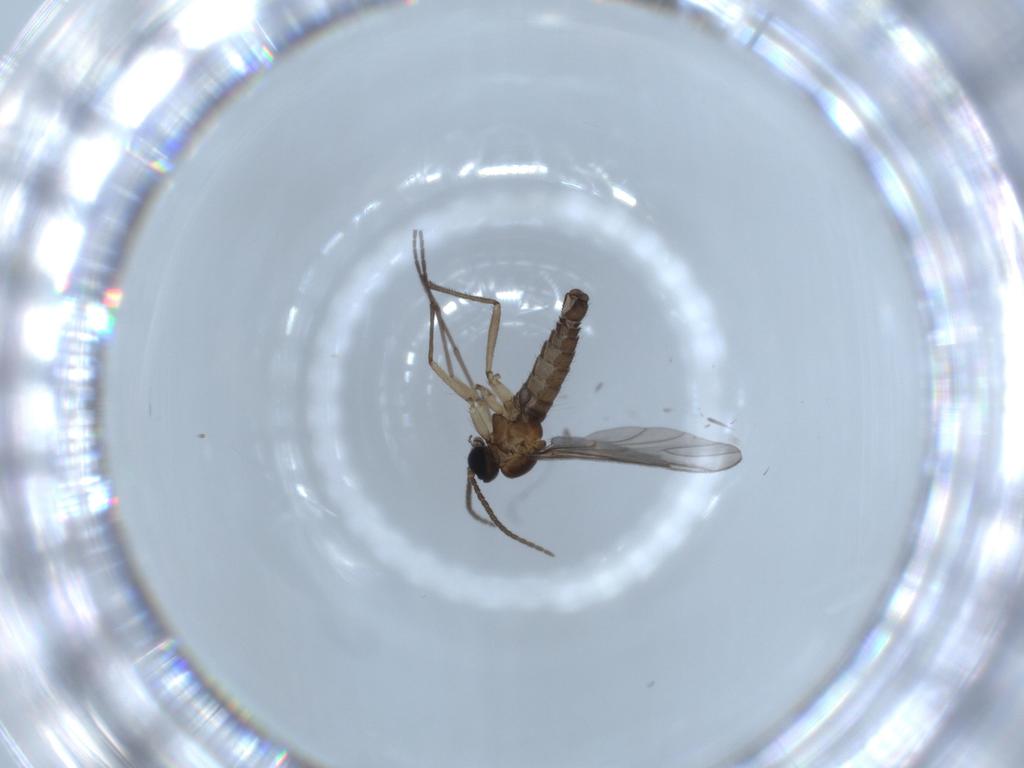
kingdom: Animalia
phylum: Arthropoda
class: Insecta
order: Diptera
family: Sciaridae
